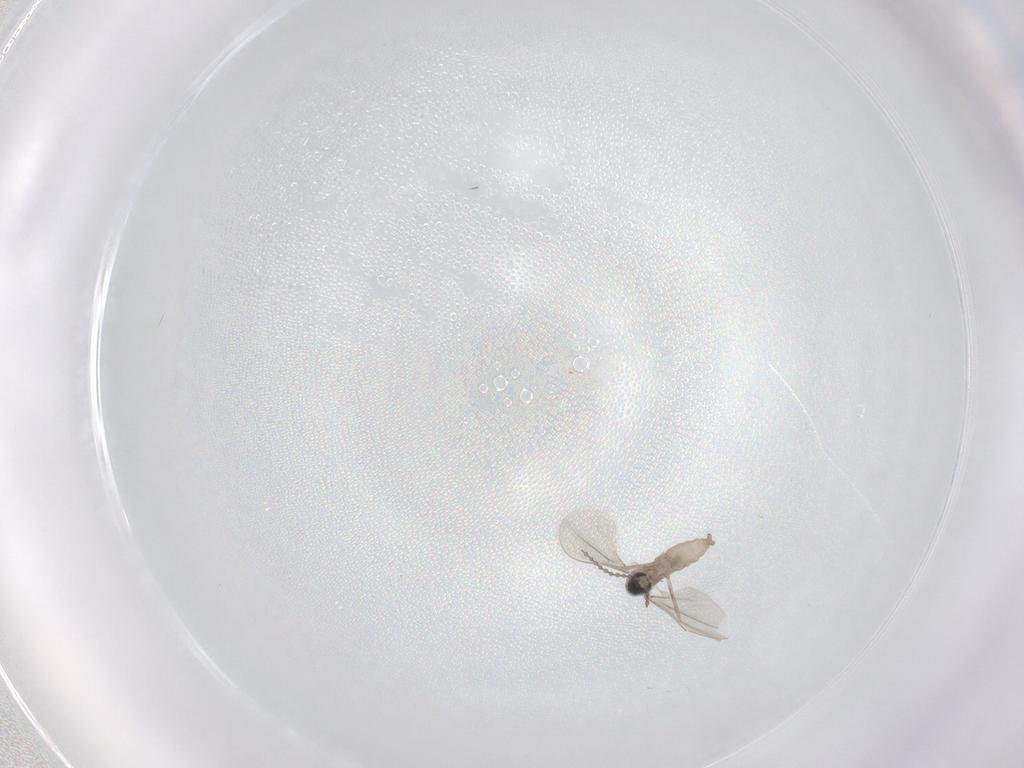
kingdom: Animalia
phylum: Arthropoda
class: Insecta
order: Diptera
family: Cecidomyiidae
